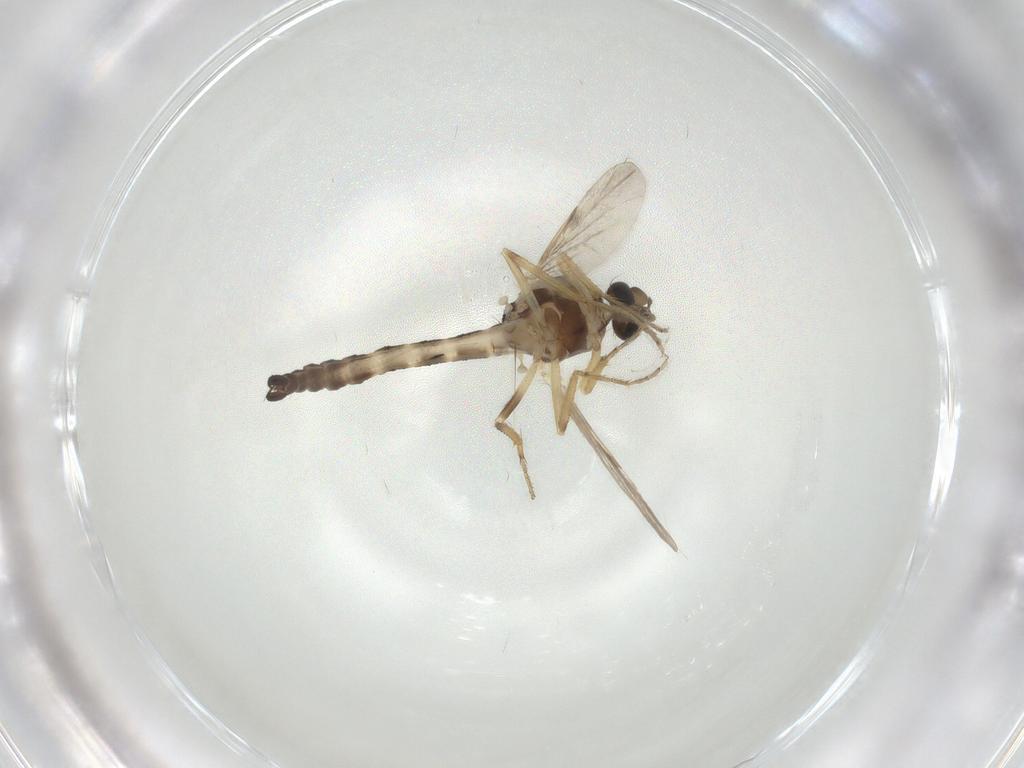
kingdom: Animalia
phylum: Arthropoda
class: Insecta
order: Diptera
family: Ceratopogonidae
